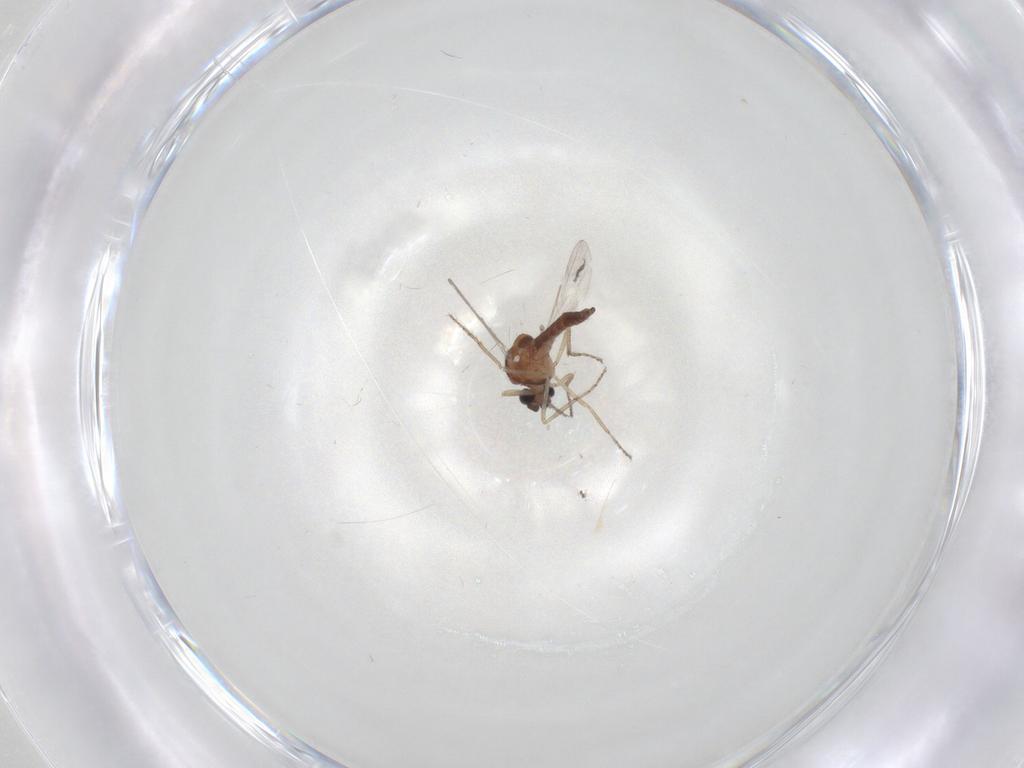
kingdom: Animalia
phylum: Arthropoda
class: Insecta
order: Diptera
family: Ceratopogonidae
